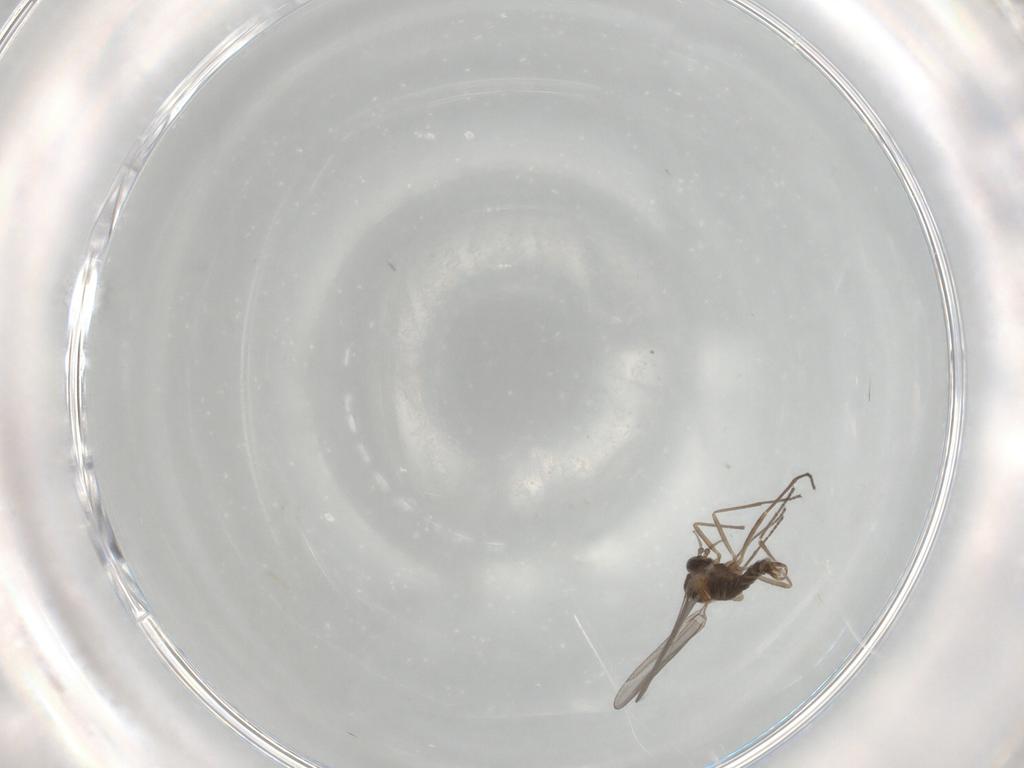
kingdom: Animalia
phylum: Arthropoda
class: Insecta
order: Diptera
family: Cecidomyiidae
